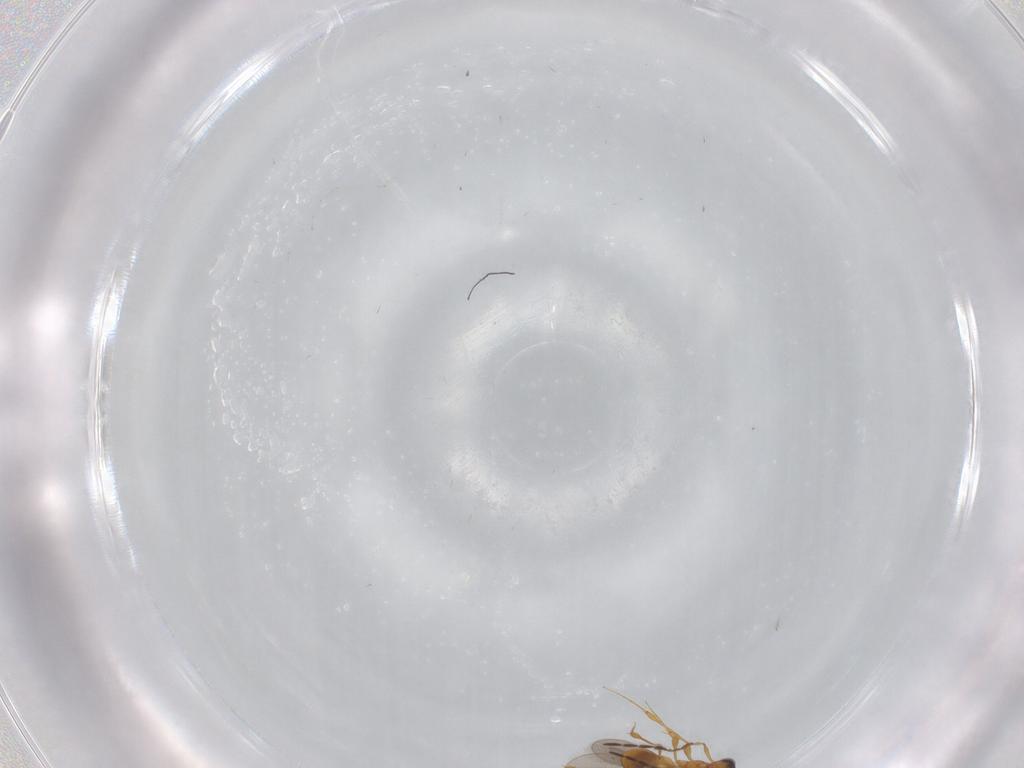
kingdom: Animalia
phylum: Arthropoda
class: Insecta
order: Hymenoptera
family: Platygastridae
